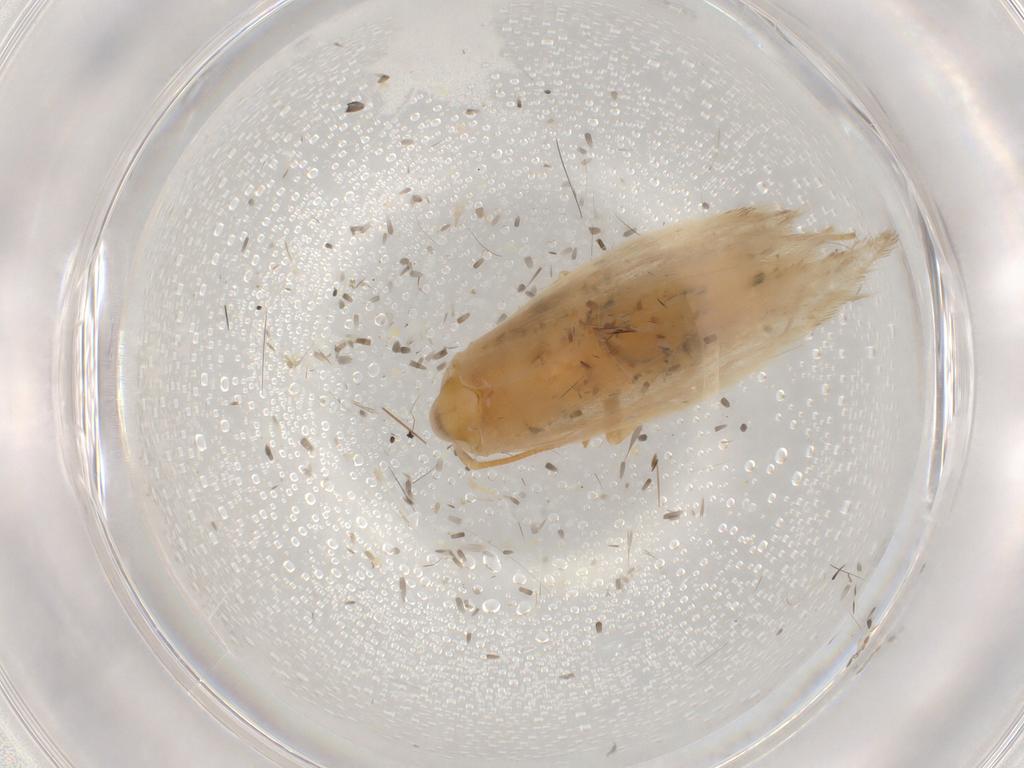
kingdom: Animalia
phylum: Arthropoda
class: Insecta
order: Lepidoptera
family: Xyloryctidae
